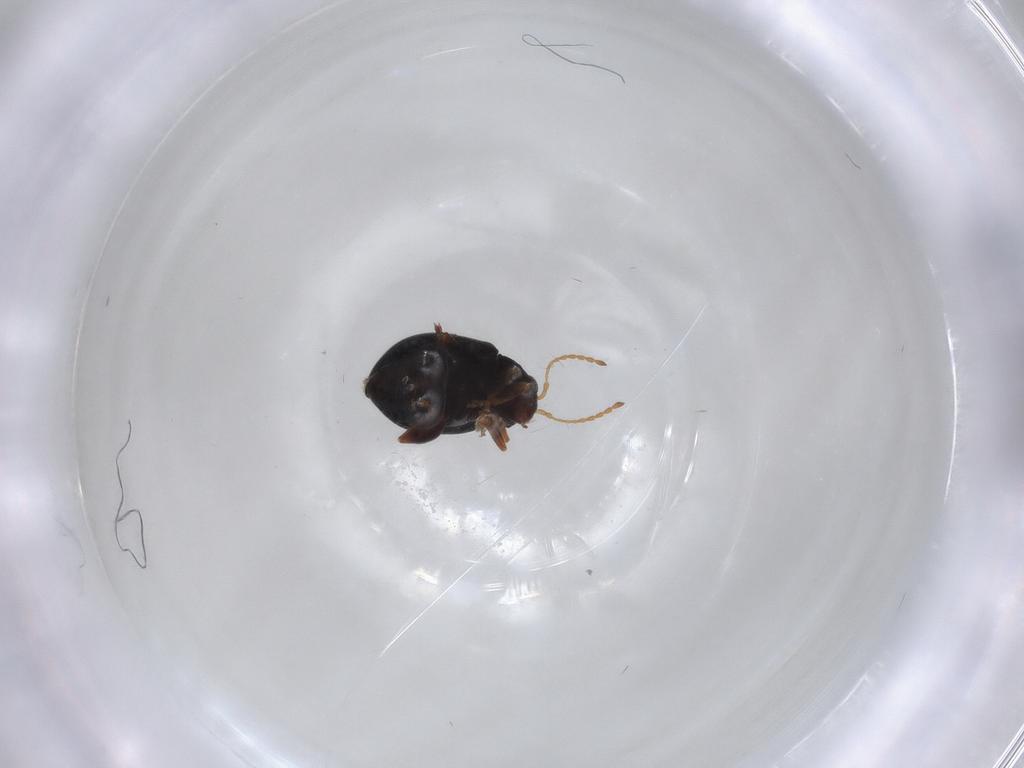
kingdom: Animalia
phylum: Arthropoda
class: Insecta
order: Coleoptera
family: Chrysomelidae
